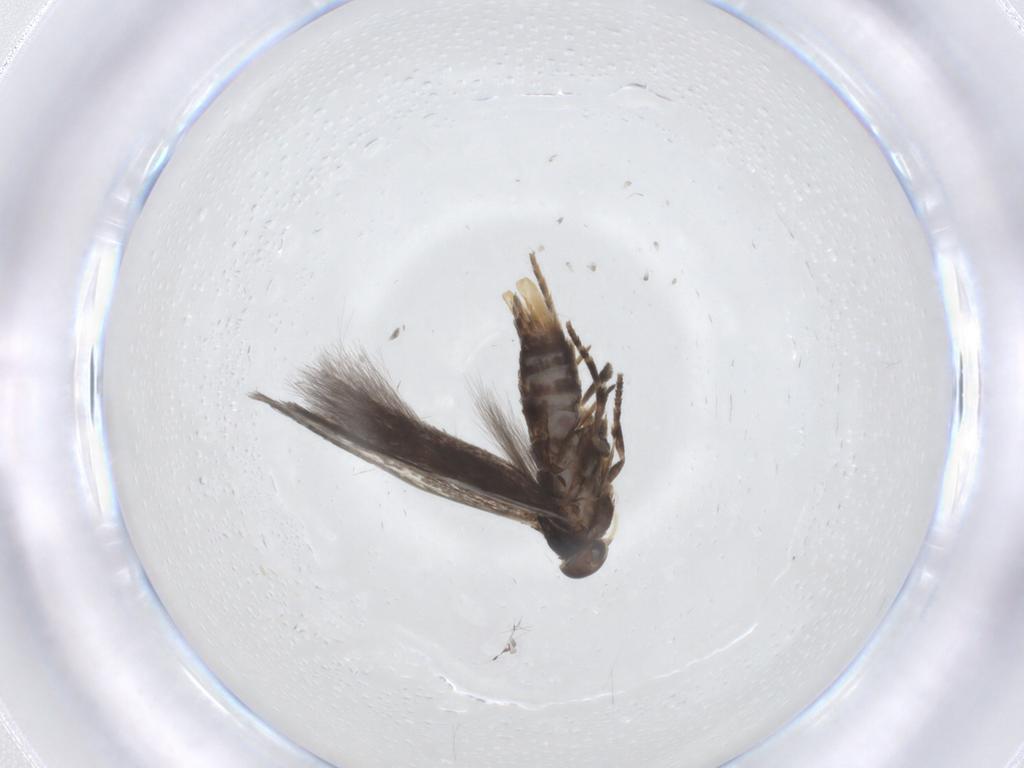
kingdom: Animalia
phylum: Arthropoda
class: Insecta
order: Lepidoptera
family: Elachistidae
